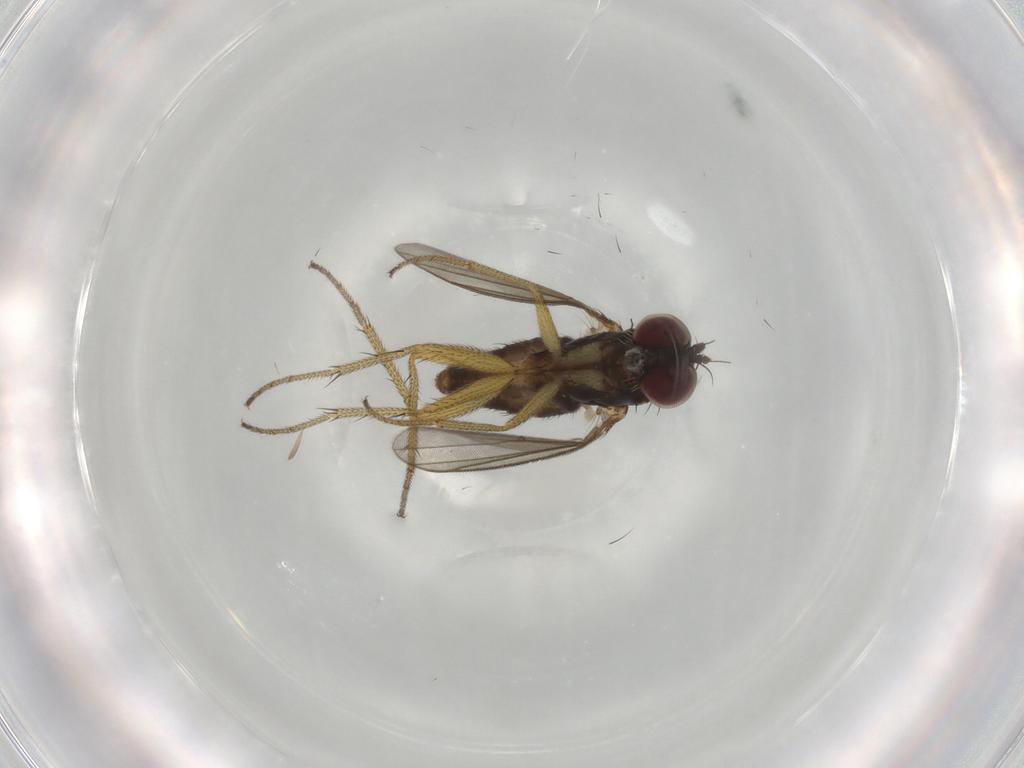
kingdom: Animalia
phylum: Arthropoda
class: Insecta
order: Diptera
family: Dolichopodidae
